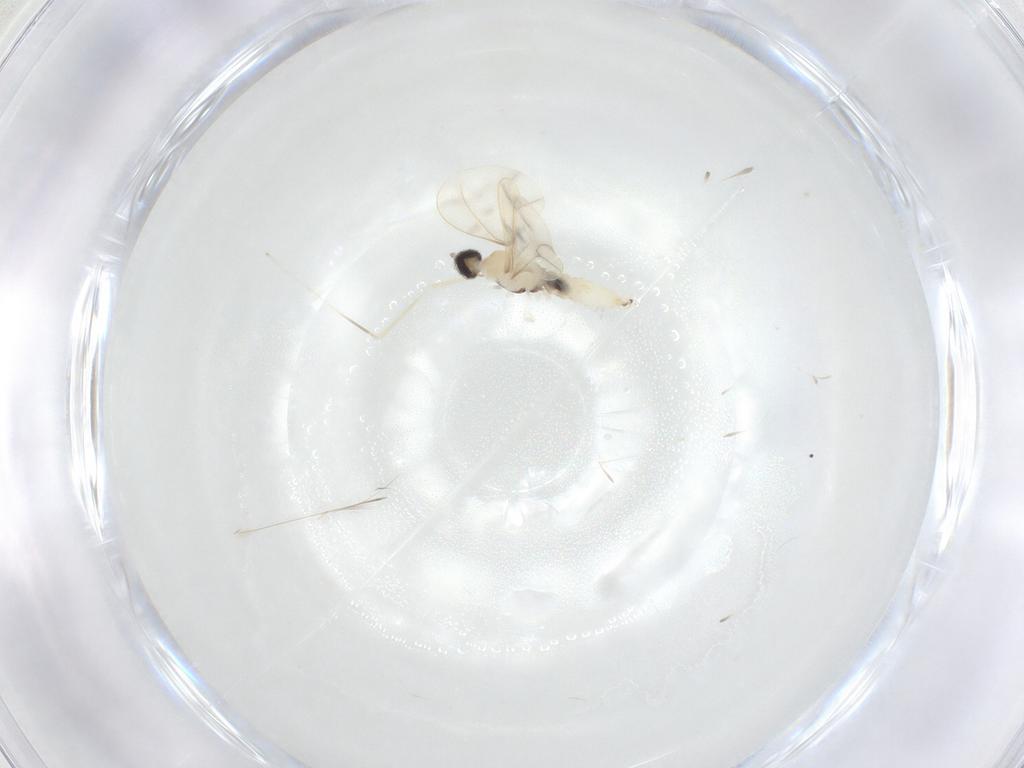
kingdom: Animalia
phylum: Arthropoda
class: Insecta
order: Diptera
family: Cecidomyiidae
